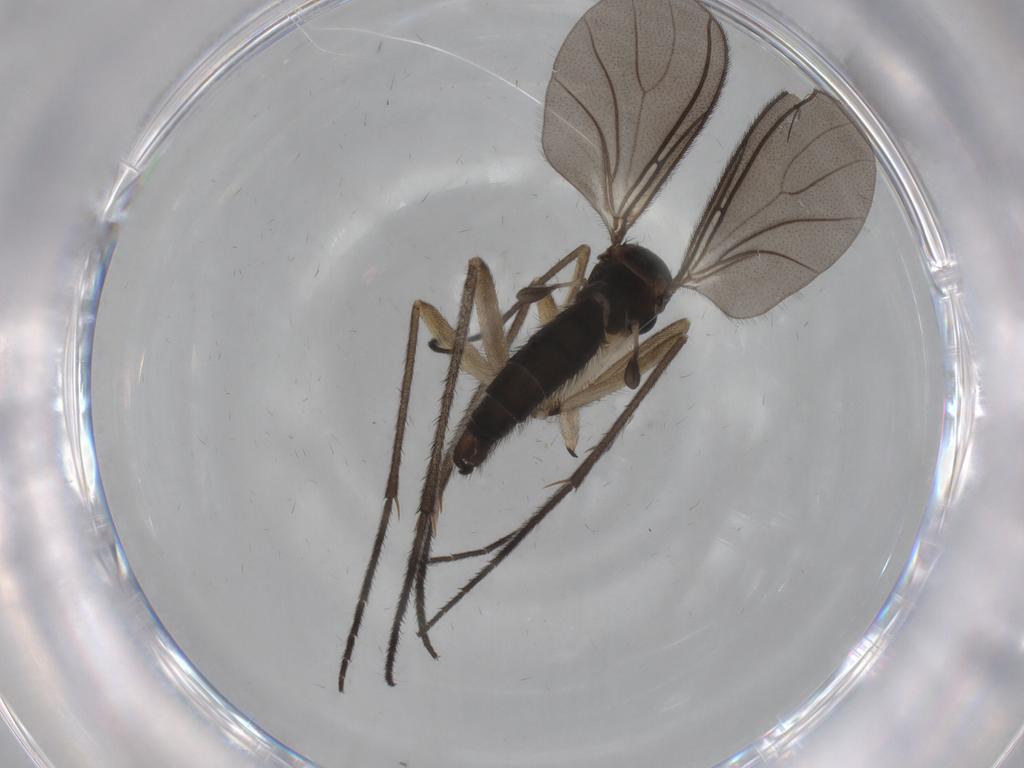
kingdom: Animalia
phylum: Arthropoda
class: Insecta
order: Diptera
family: Sciaridae
